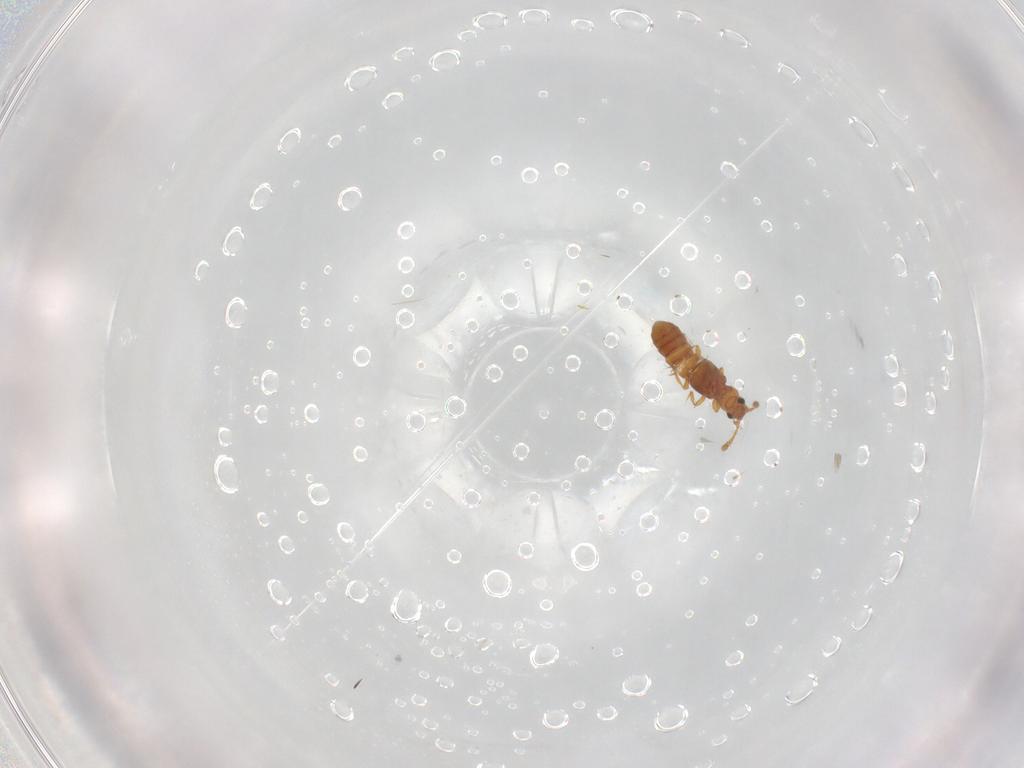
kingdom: Animalia
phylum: Arthropoda
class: Insecta
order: Coleoptera
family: Staphylinidae
